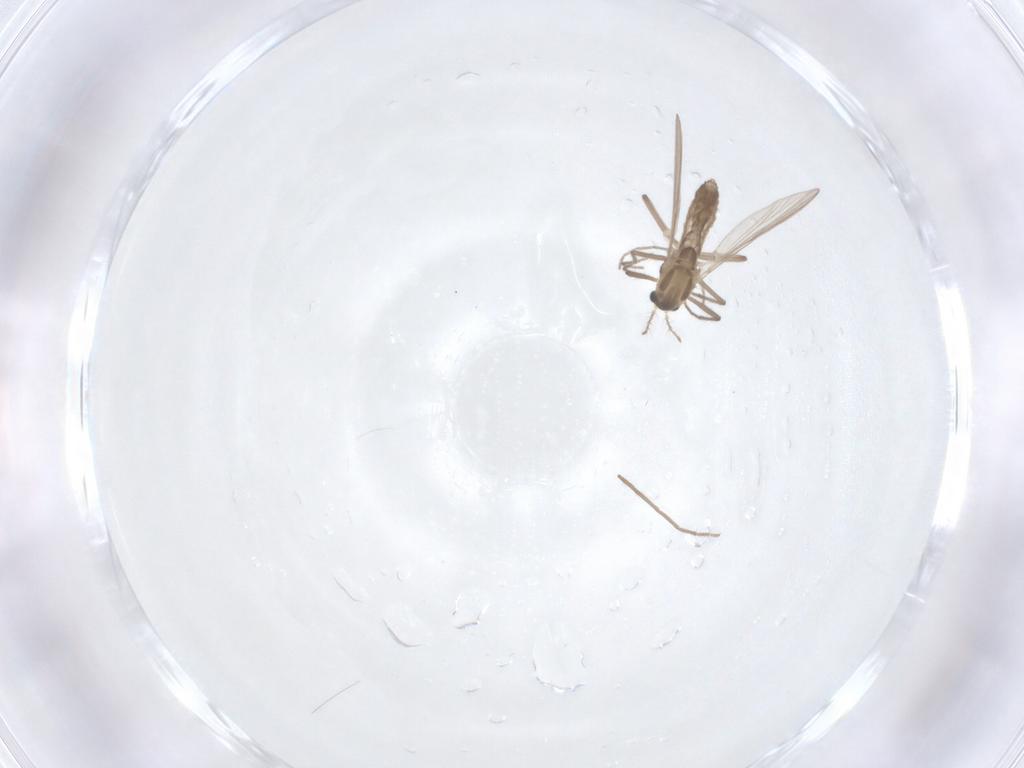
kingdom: Animalia
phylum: Arthropoda
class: Insecta
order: Diptera
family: Chironomidae
